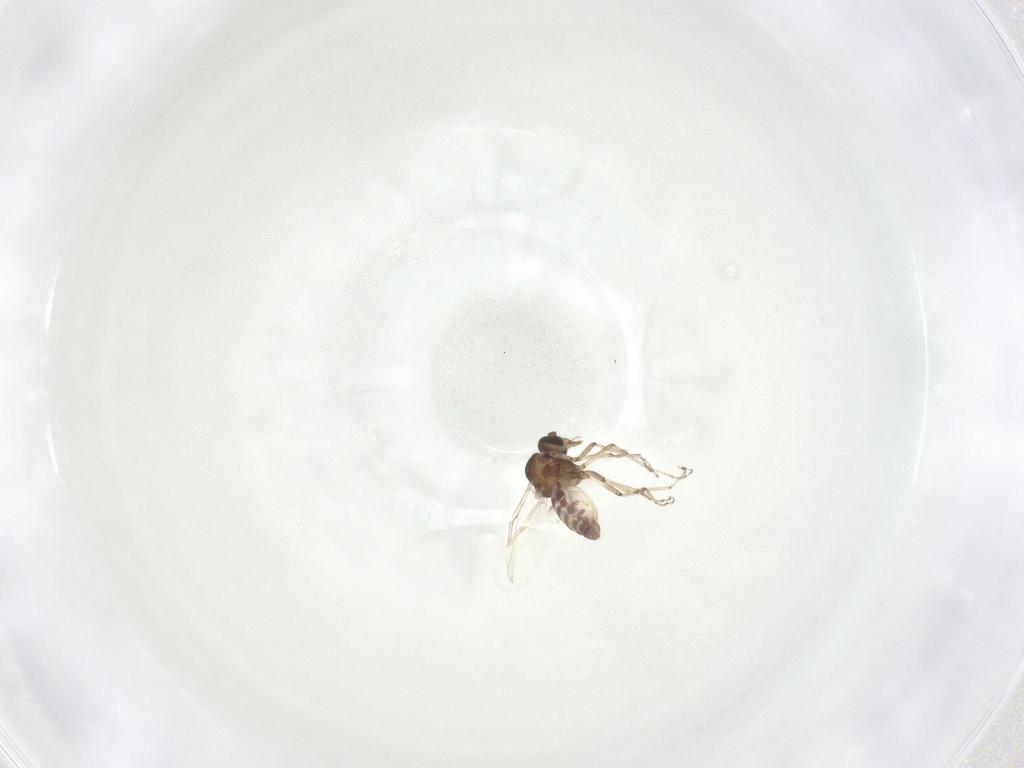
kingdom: Animalia
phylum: Arthropoda
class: Insecta
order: Diptera
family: Ceratopogonidae
